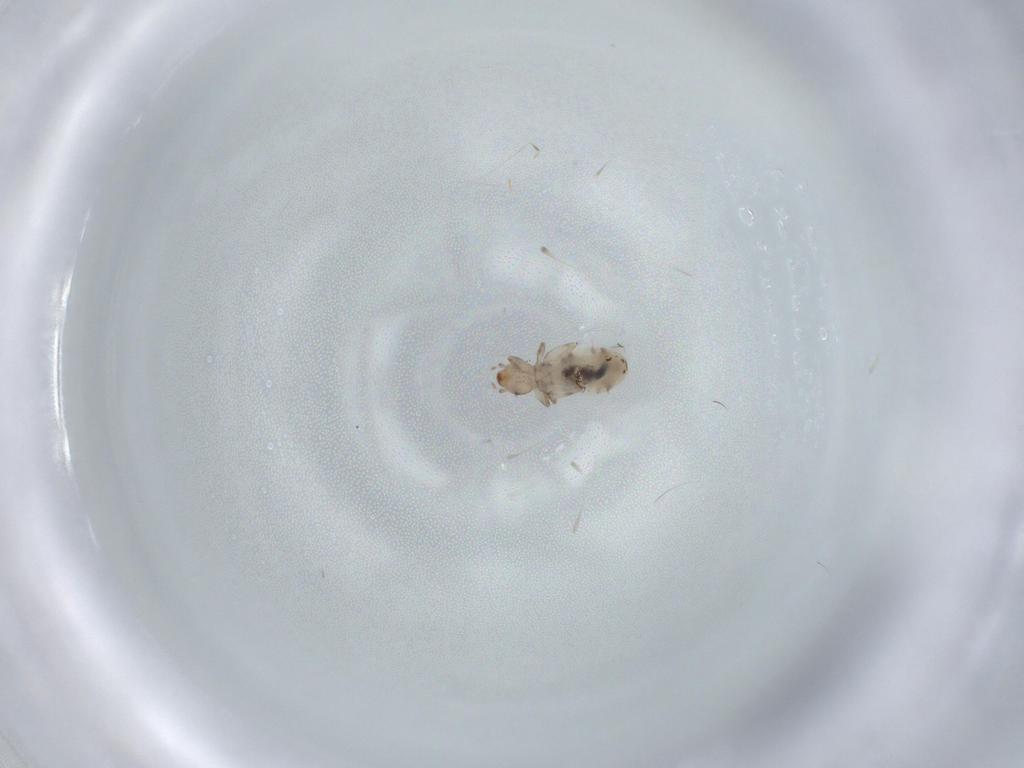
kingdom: Animalia
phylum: Arthropoda
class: Insecta
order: Psocodea
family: Liposcelididae
